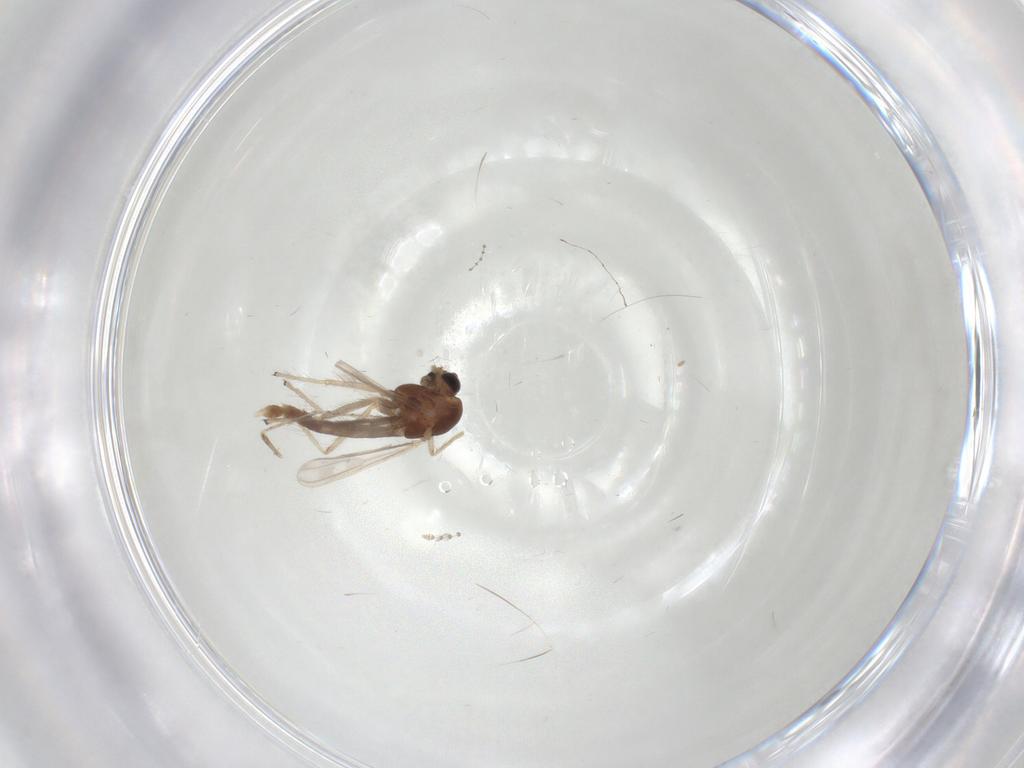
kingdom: Animalia
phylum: Arthropoda
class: Insecta
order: Diptera
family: Chironomidae
